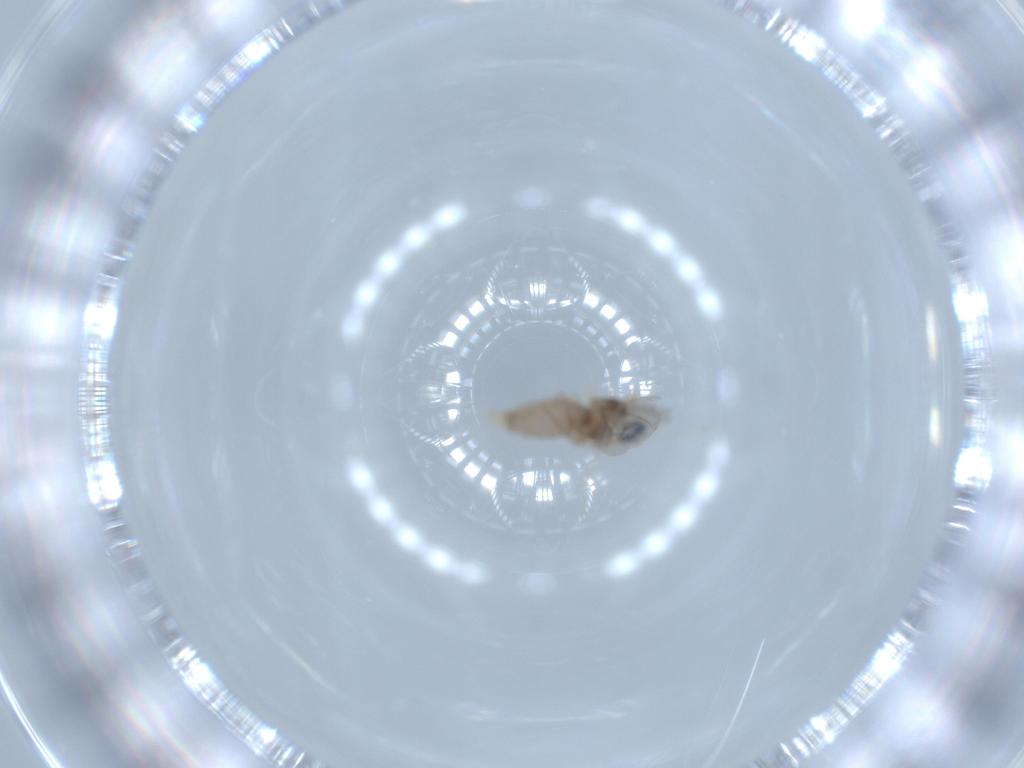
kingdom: Animalia
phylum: Arthropoda
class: Insecta
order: Diptera
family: Cecidomyiidae
